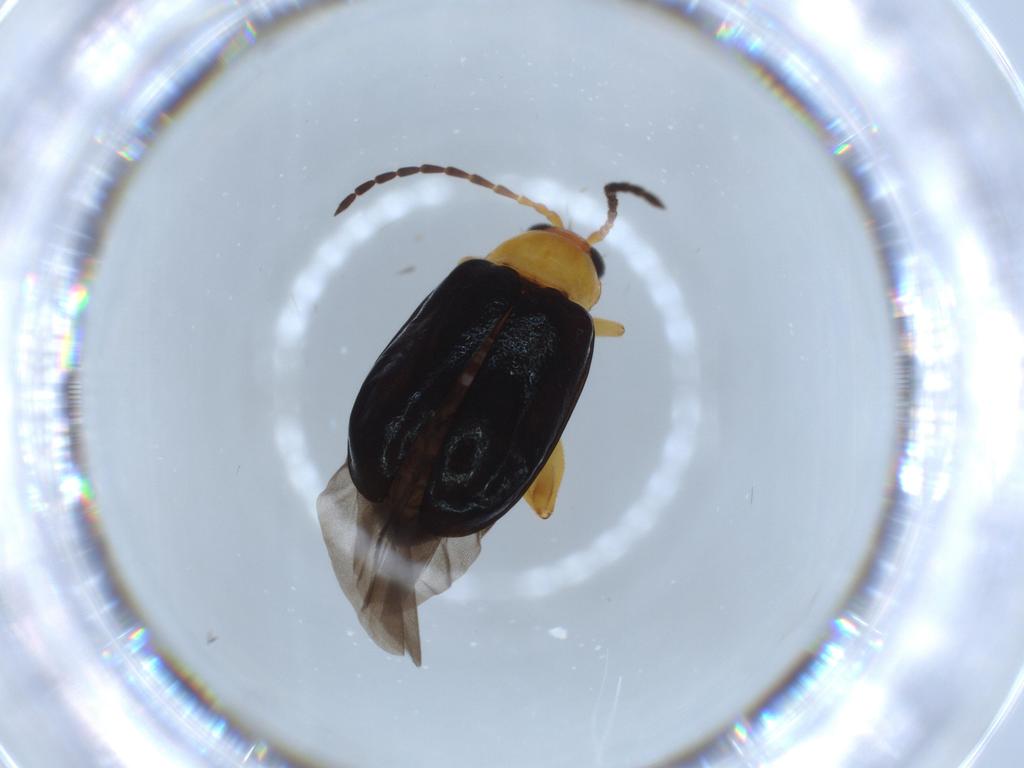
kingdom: Animalia
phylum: Arthropoda
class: Insecta
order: Coleoptera
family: Chrysomelidae
